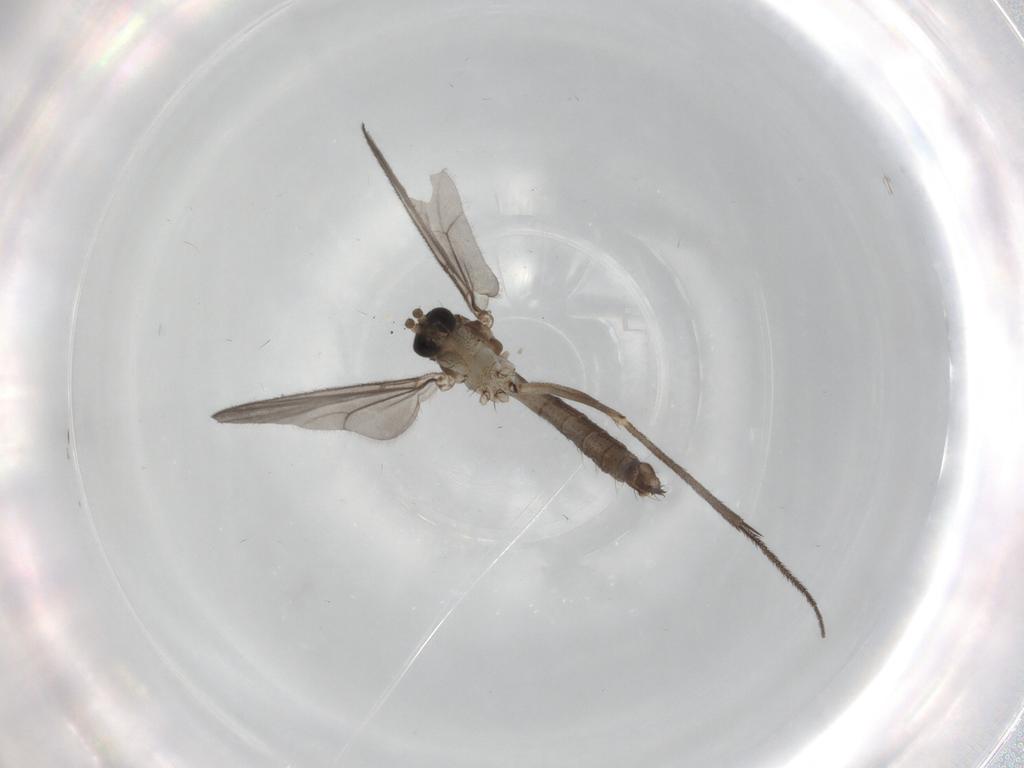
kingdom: Animalia
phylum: Arthropoda
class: Insecta
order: Diptera
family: Mycetophilidae
